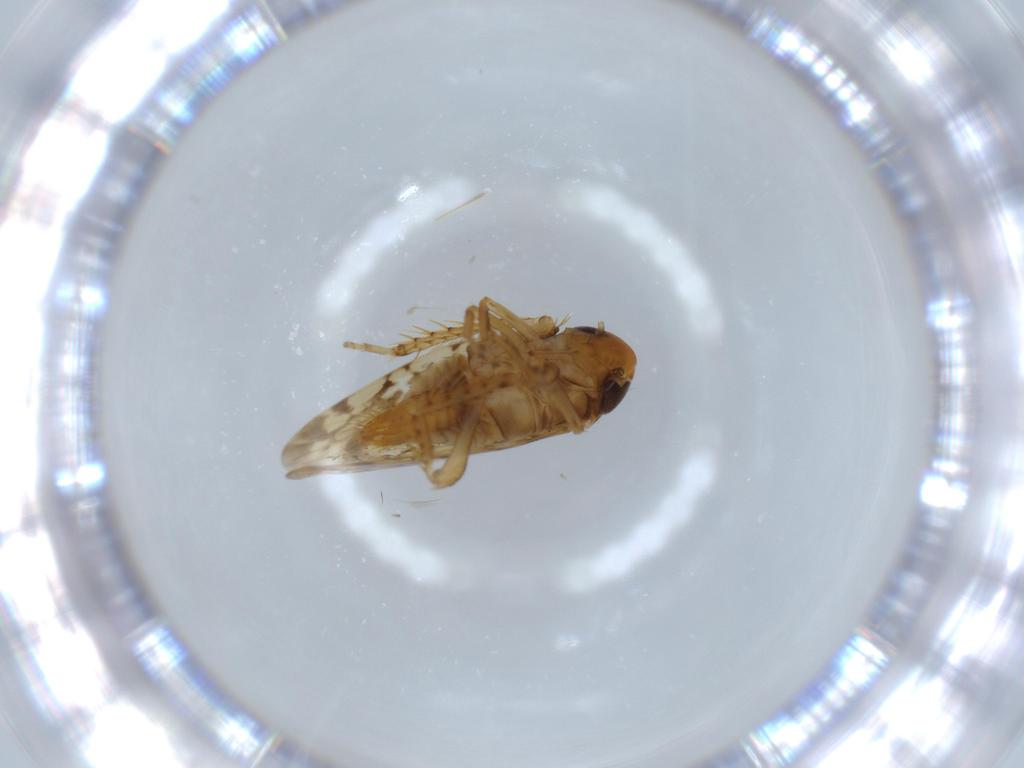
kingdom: Animalia
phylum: Arthropoda
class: Insecta
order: Hemiptera
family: Cicadellidae
